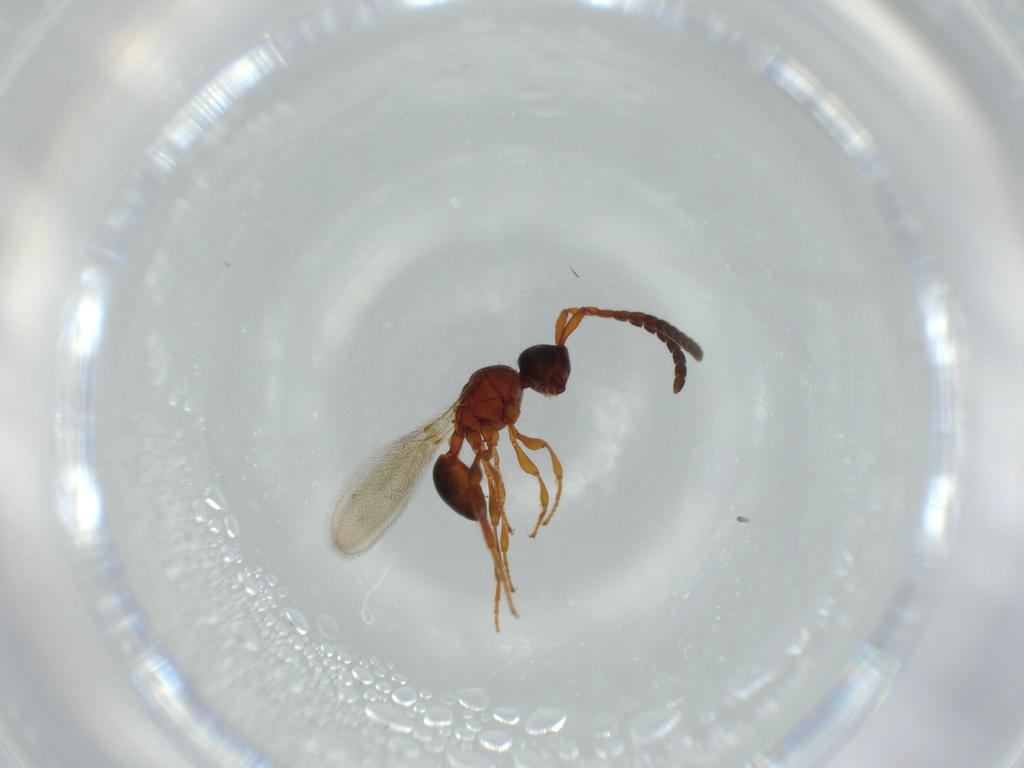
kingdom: Animalia
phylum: Arthropoda
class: Insecta
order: Hymenoptera
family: Diapriidae
